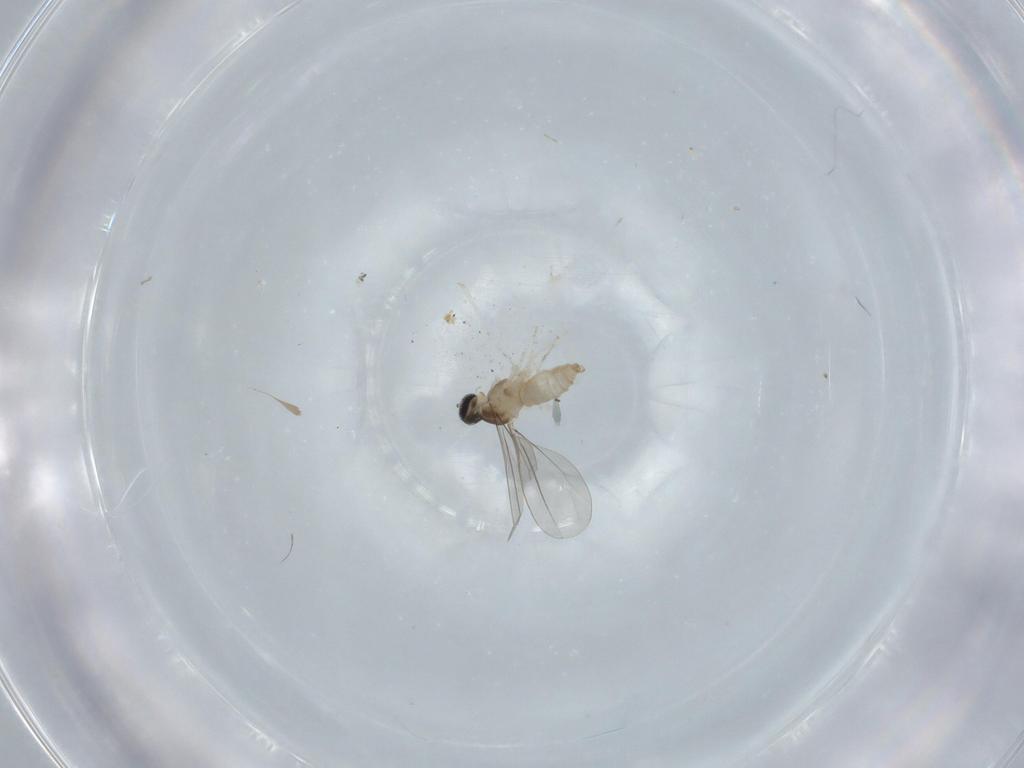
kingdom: Animalia
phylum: Arthropoda
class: Insecta
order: Diptera
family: Cecidomyiidae
